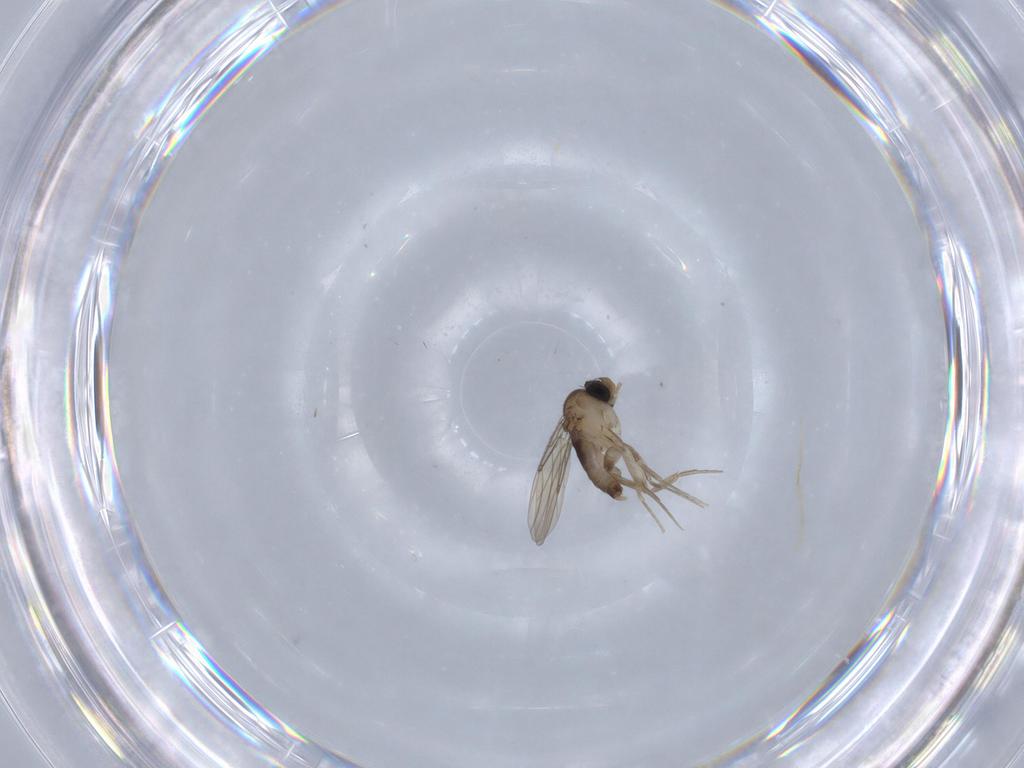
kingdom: Animalia
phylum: Arthropoda
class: Insecta
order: Diptera
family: Phoridae
